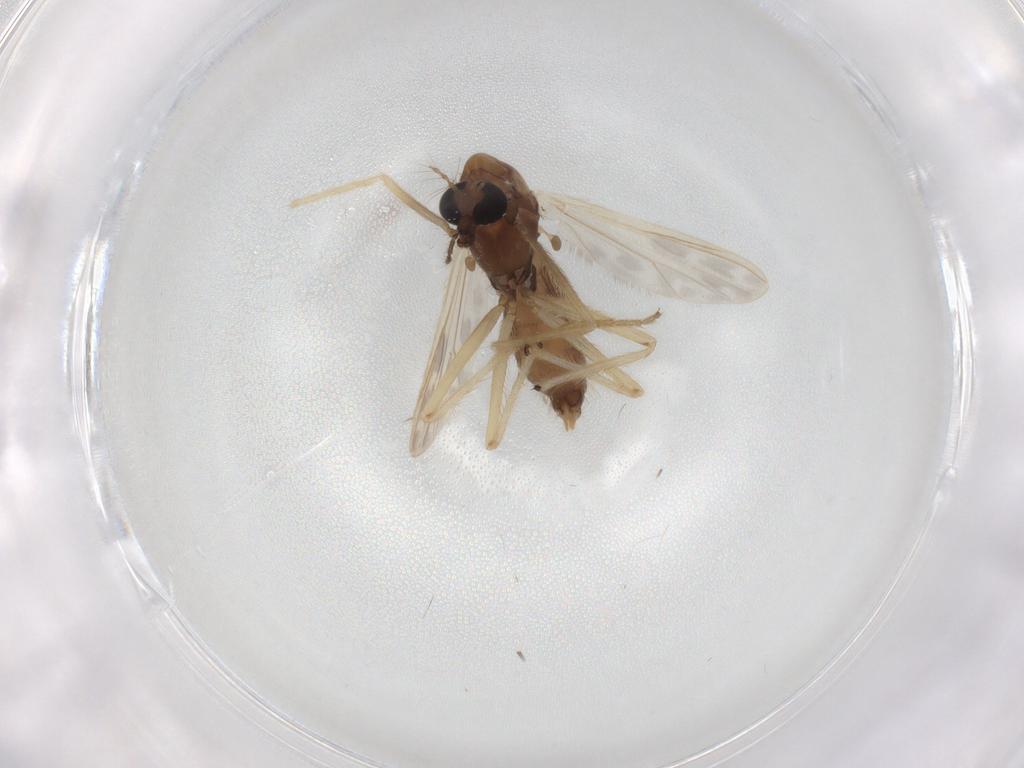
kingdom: Animalia
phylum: Arthropoda
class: Insecta
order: Diptera
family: Chironomidae
